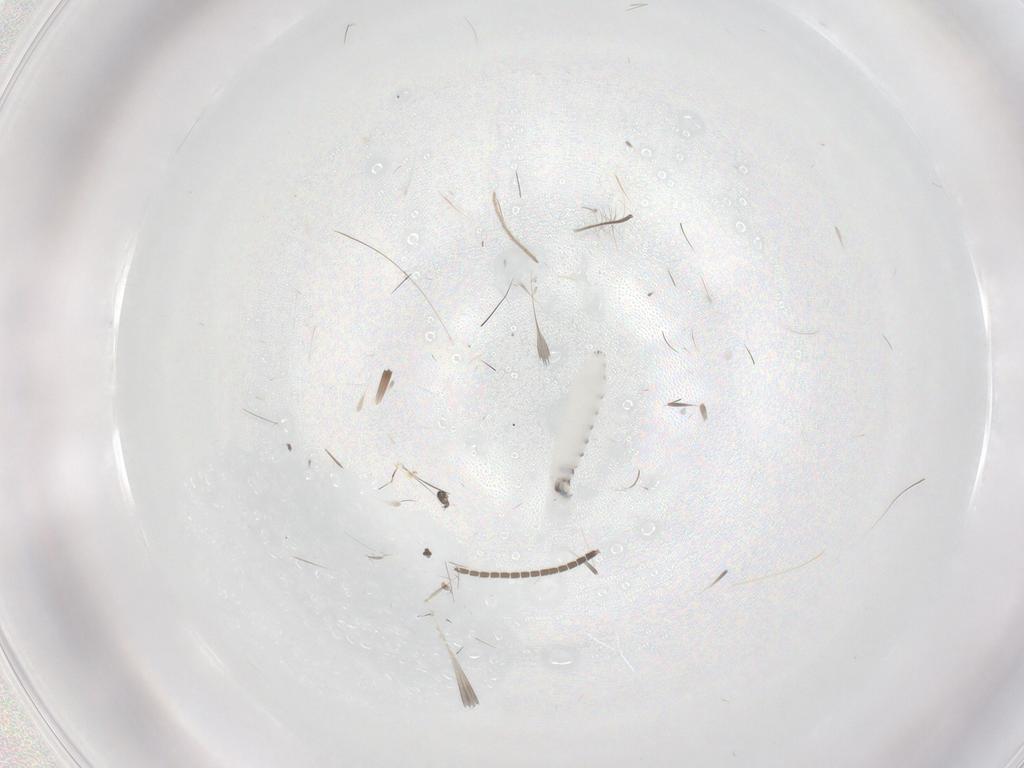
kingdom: Animalia
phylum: Arthropoda
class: Insecta
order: Diptera
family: Chironomidae
